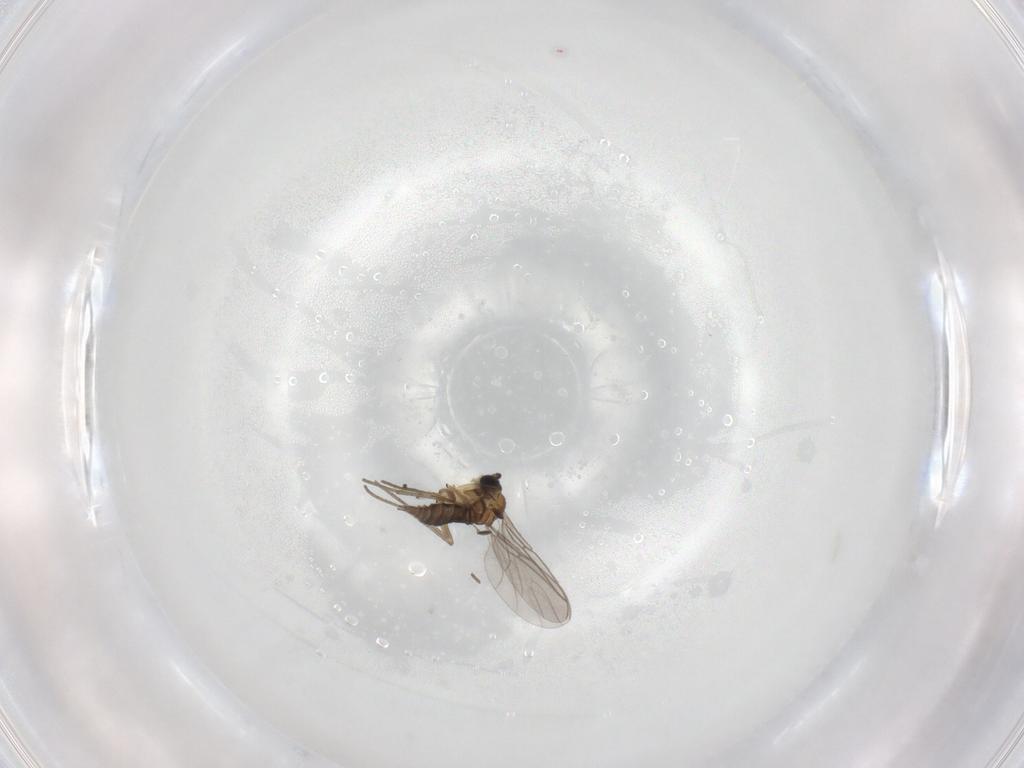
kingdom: Animalia
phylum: Arthropoda
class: Insecta
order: Diptera
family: Sciaridae
